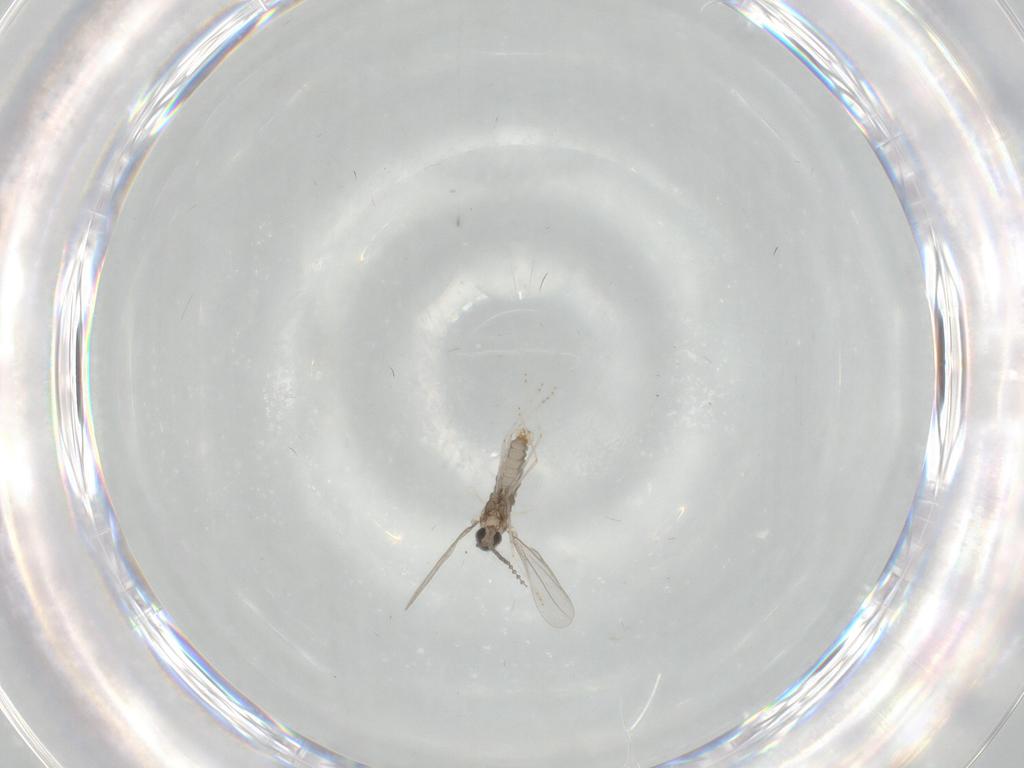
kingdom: Animalia
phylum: Arthropoda
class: Insecta
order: Diptera
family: Cecidomyiidae
